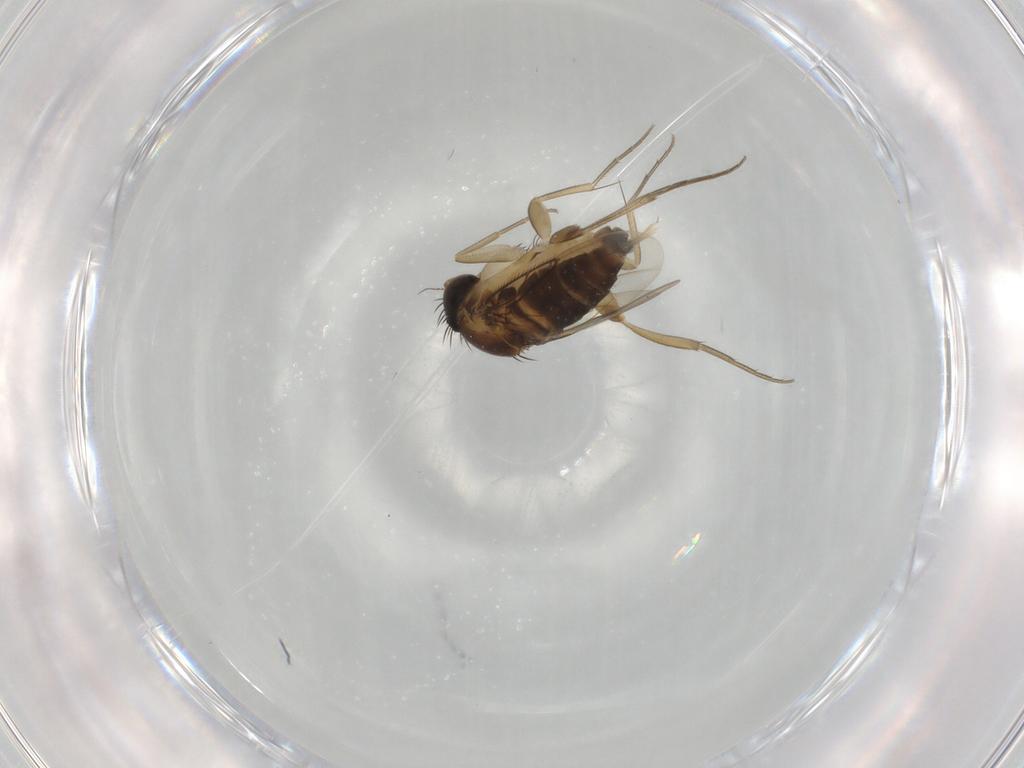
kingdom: Animalia
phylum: Arthropoda
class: Insecta
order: Diptera
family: Phoridae
